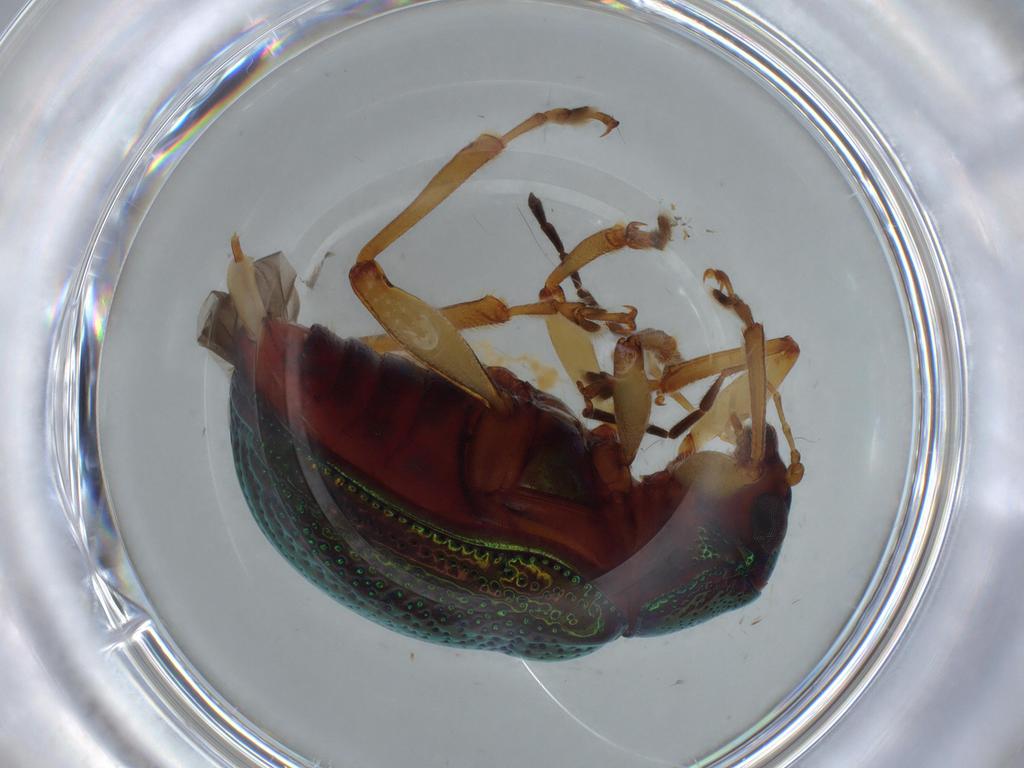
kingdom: Animalia
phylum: Arthropoda
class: Insecta
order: Coleoptera
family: Chrysomelidae
